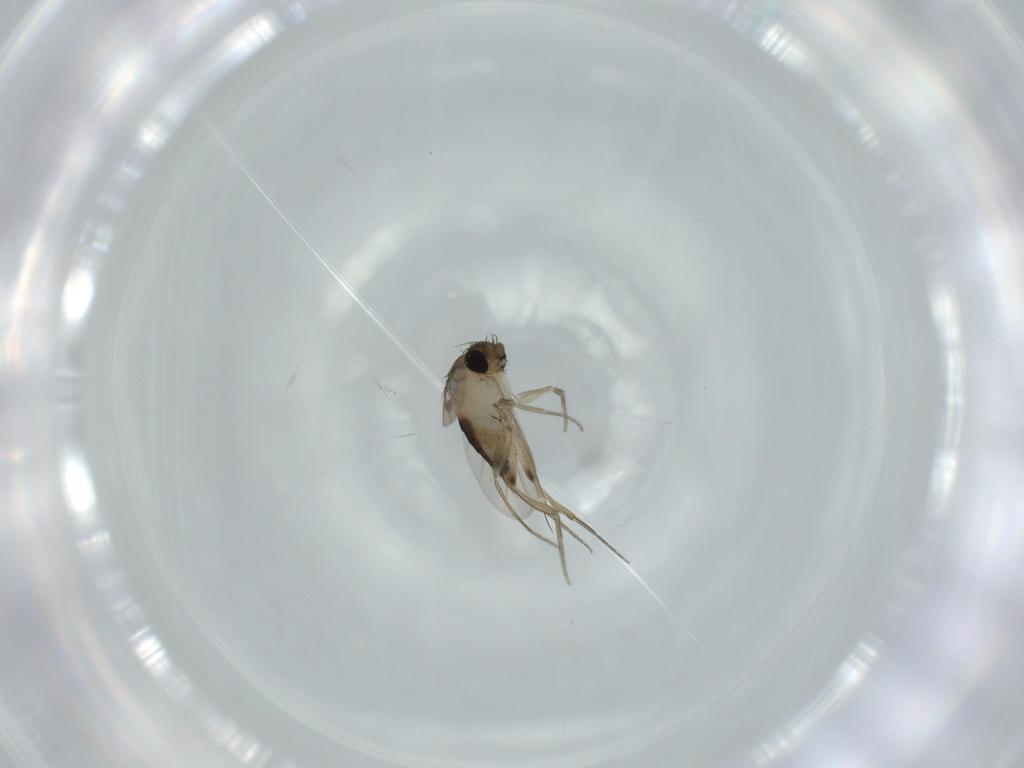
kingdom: Animalia
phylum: Arthropoda
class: Insecta
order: Diptera
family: Phoridae
